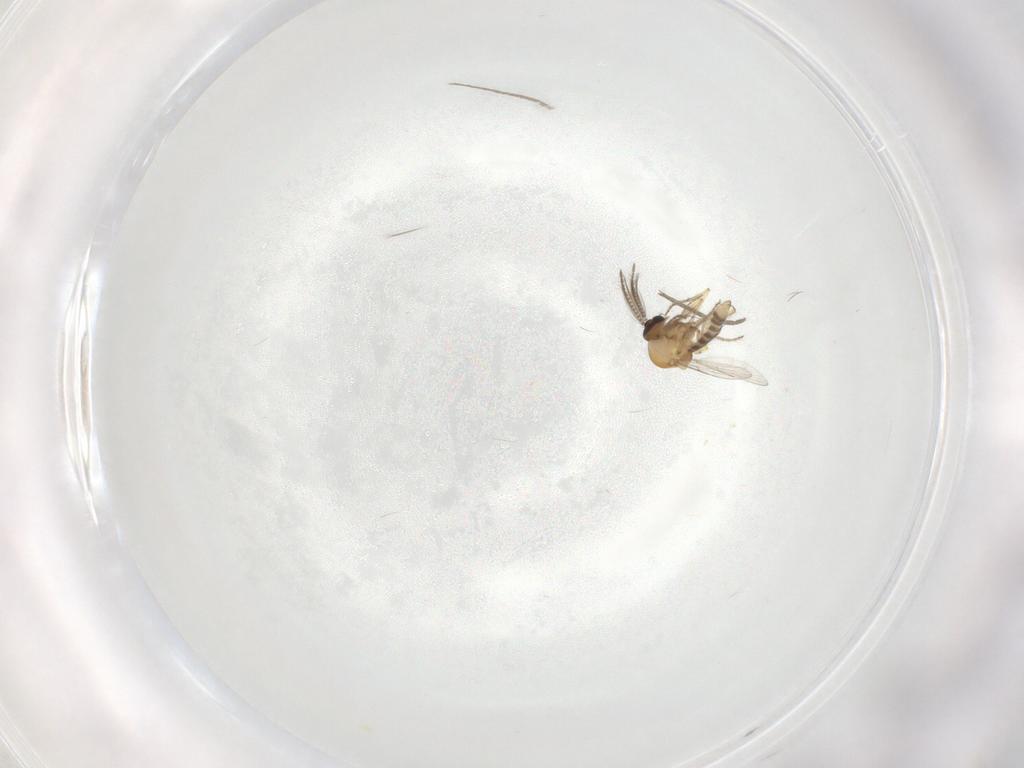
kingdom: Animalia
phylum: Arthropoda
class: Insecta
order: Diptera
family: Mycetophilidae
